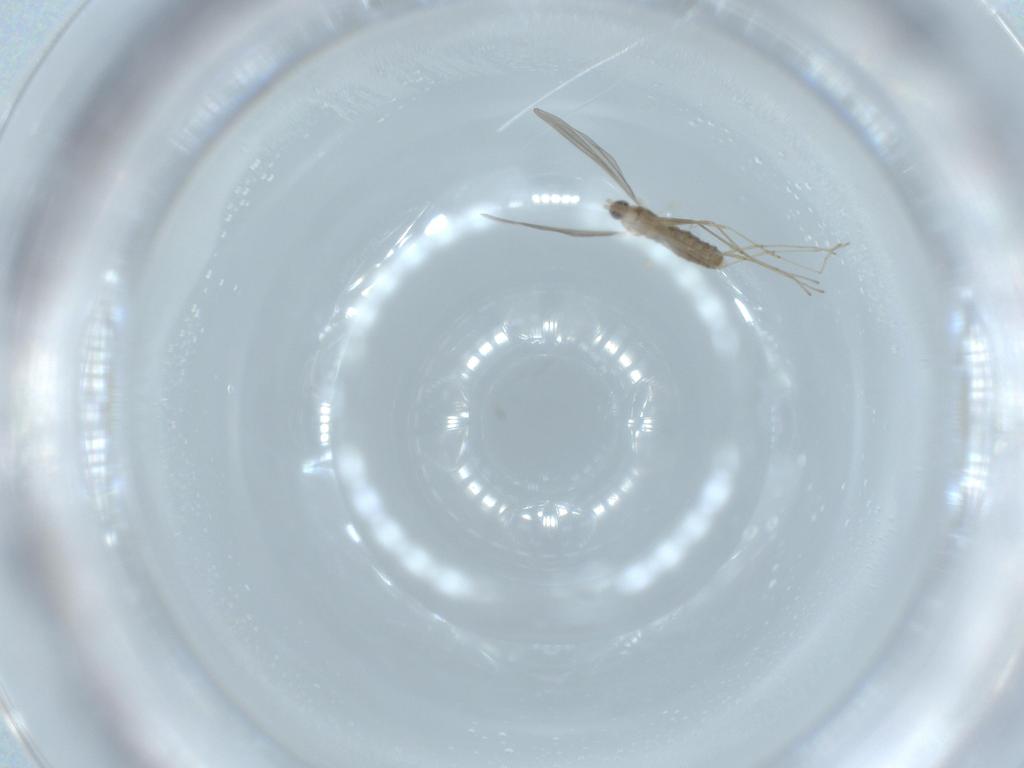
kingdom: Animalia
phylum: Arthropoda
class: Insecta
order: Diptera
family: Cecidomyiidae
